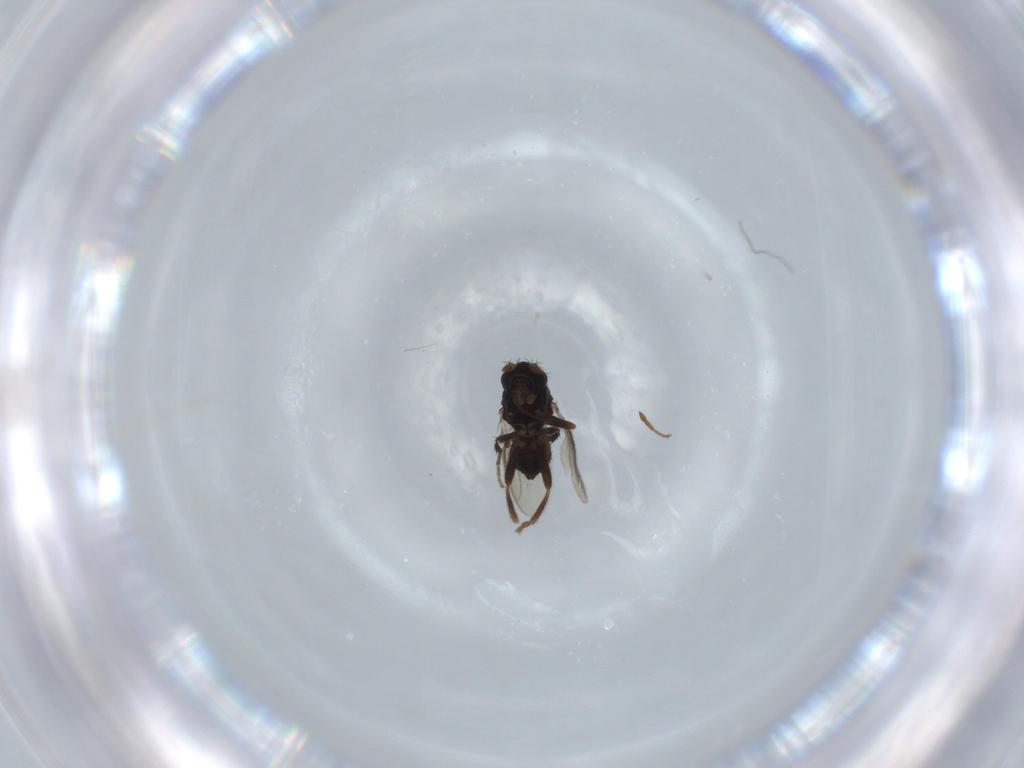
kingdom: Animalia
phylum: Arthropoda
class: Insecta
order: Diptera
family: Sphaeroceridae
